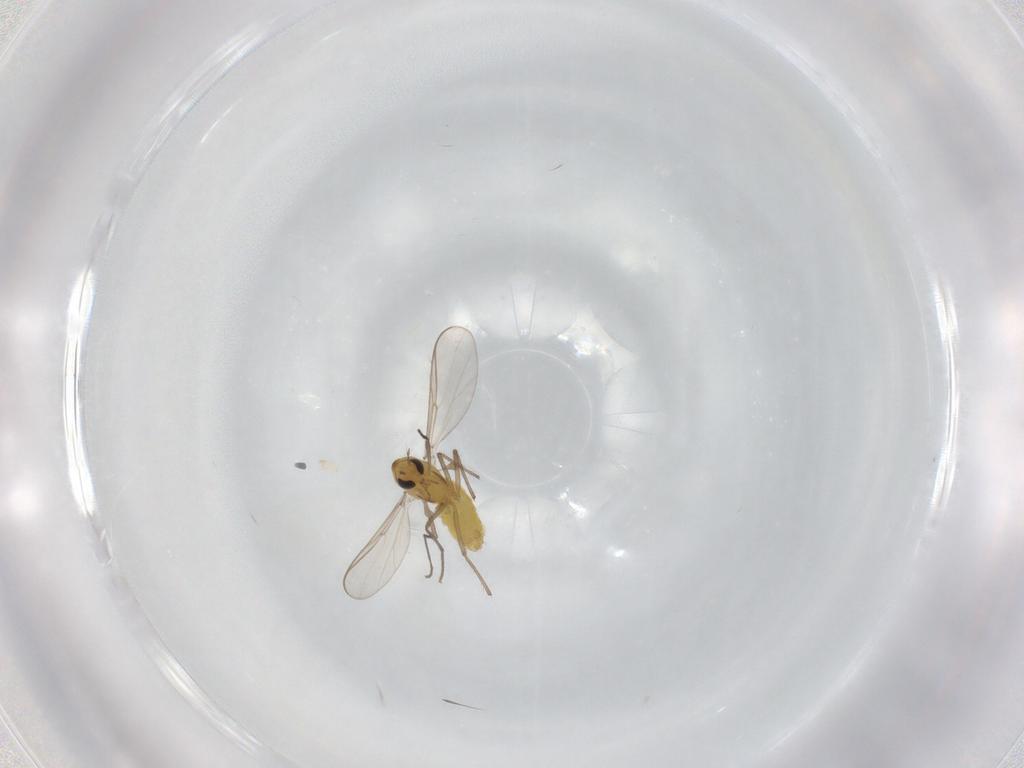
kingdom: Animalia
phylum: Arthropoda
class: Insecta
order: Diptera
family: Chironomidae
